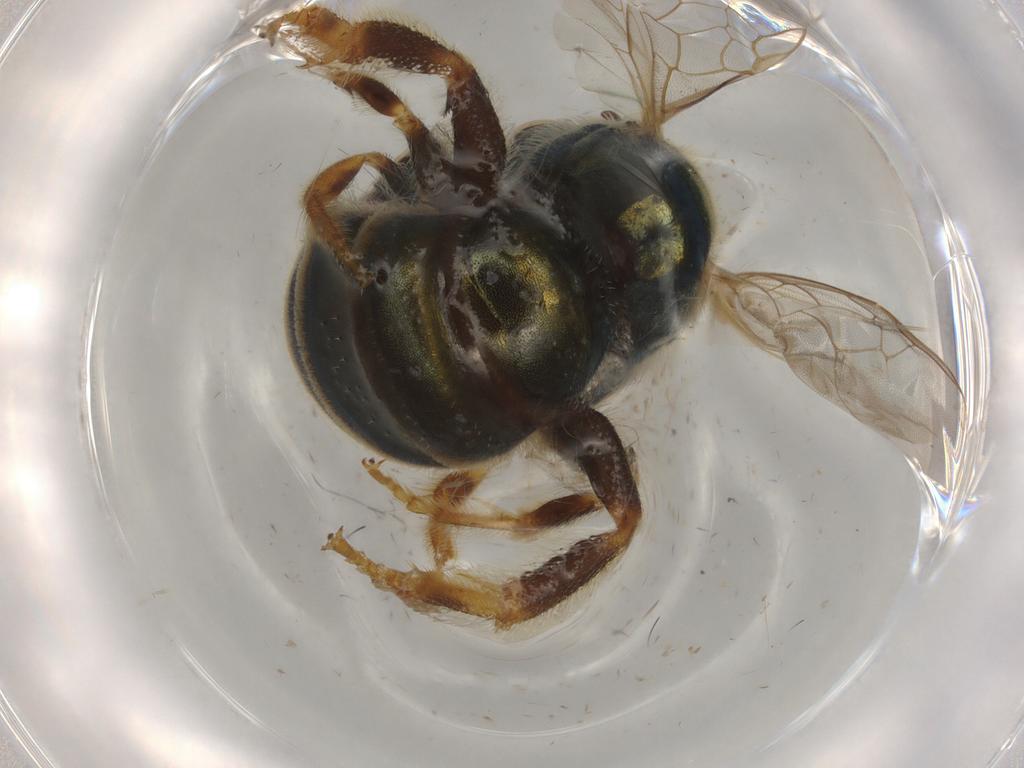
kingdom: Animalia
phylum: Arthropoda
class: Insecta
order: Hymenoptera
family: Halictidae
